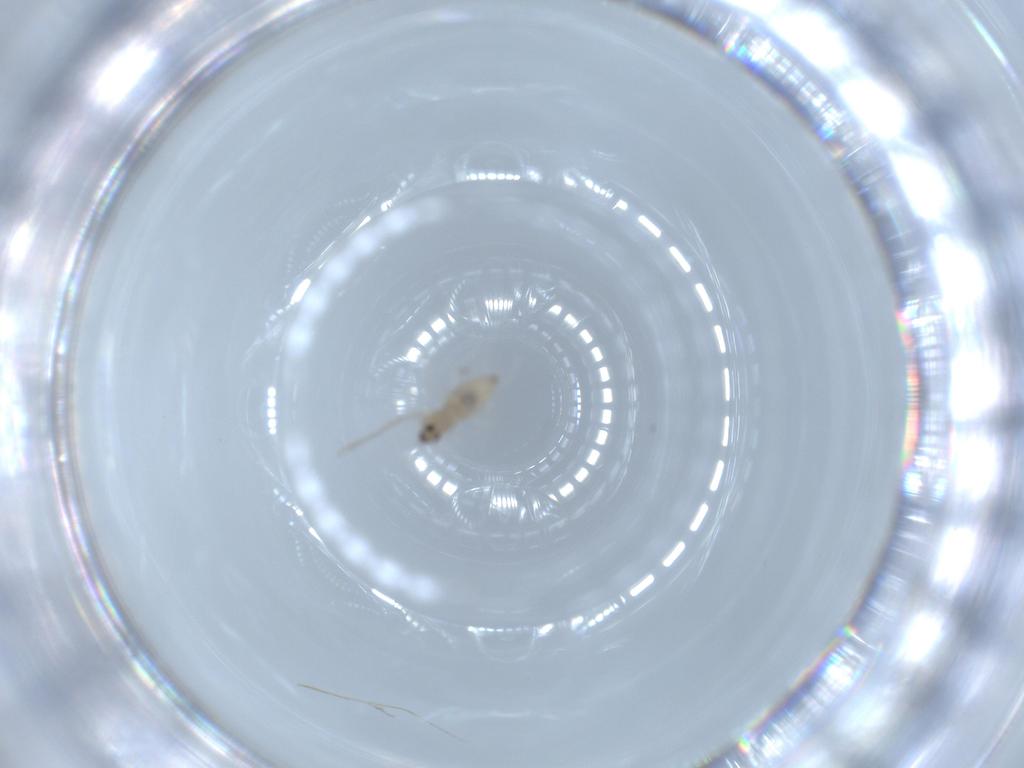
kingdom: Animalia
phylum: Arthropoda
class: Insecta
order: Diptera
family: Cecidomyiidae
